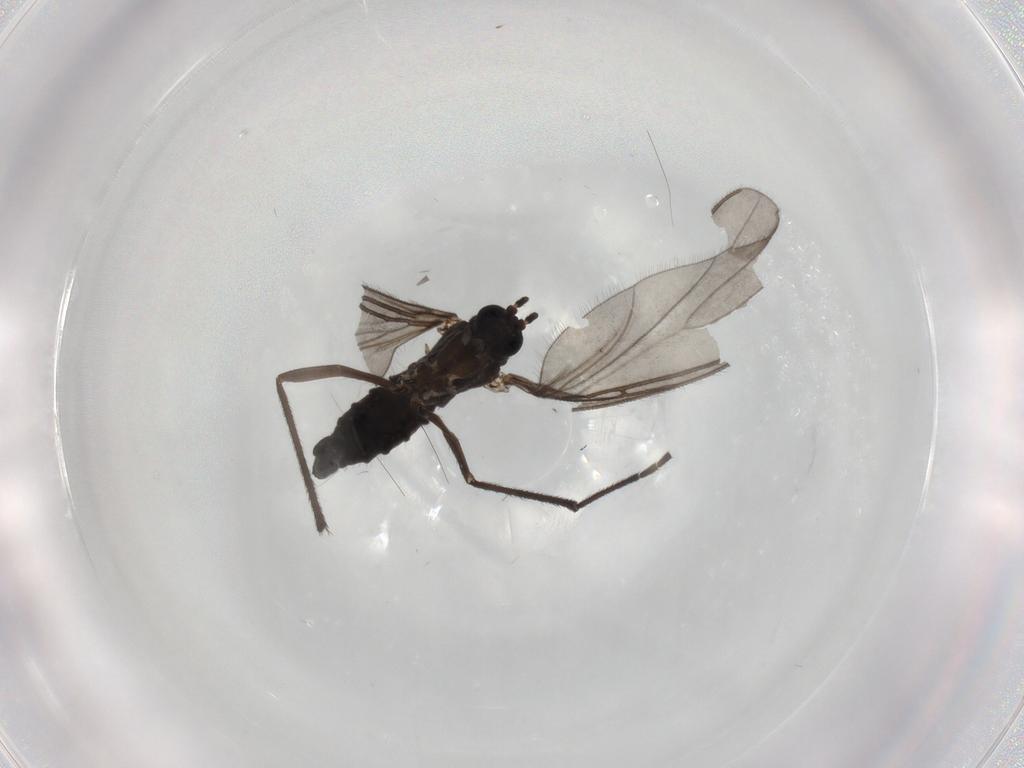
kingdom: Animalia
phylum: Arthropoda
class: Insecta
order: Diptera
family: Sciaridae
